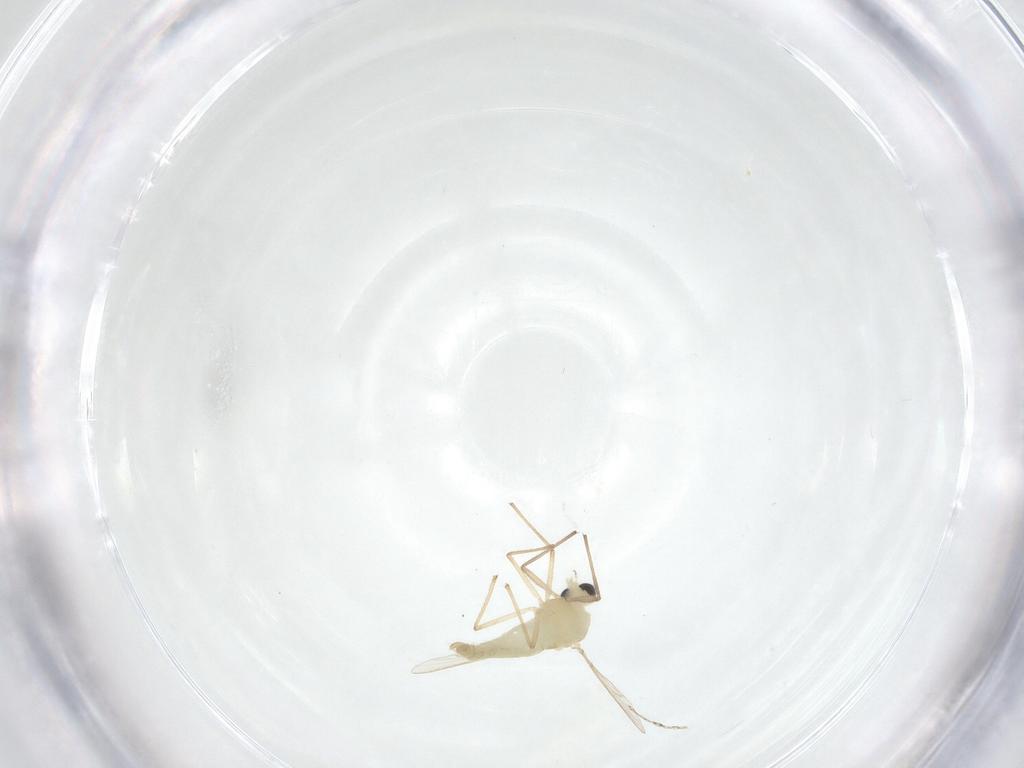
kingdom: Animalia
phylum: Arthropoda
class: Insecta
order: Diptera
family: Chironomidae
